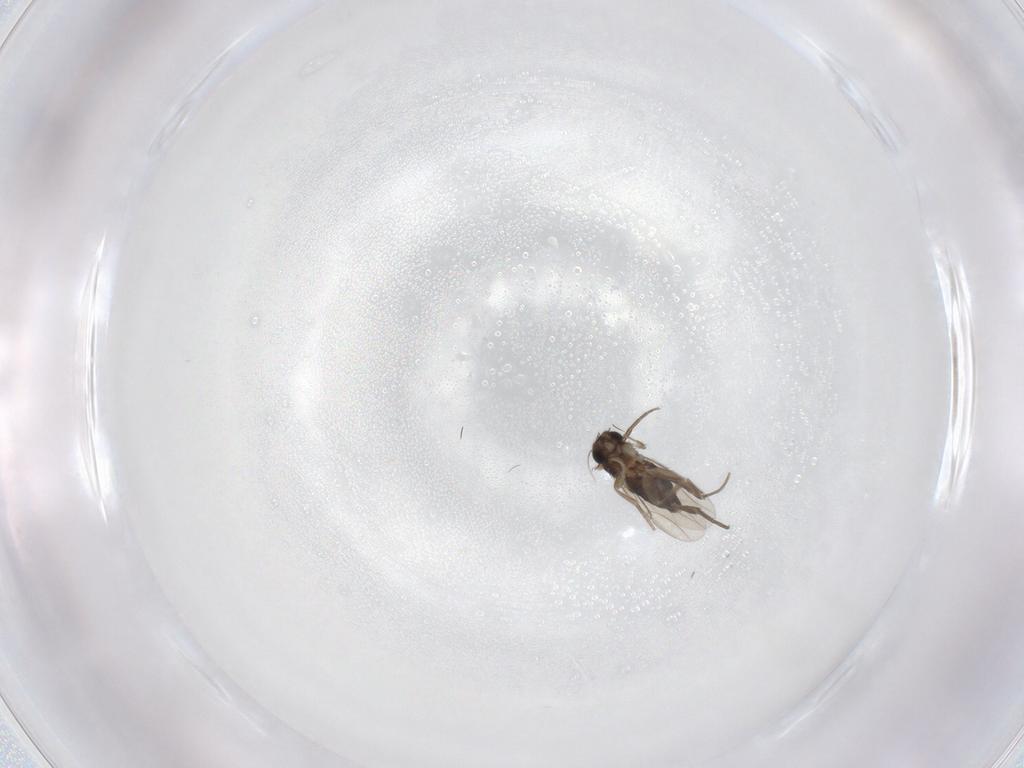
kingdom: Animalia
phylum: Arthropoda
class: Insecta
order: Diptera
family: Phoridae
